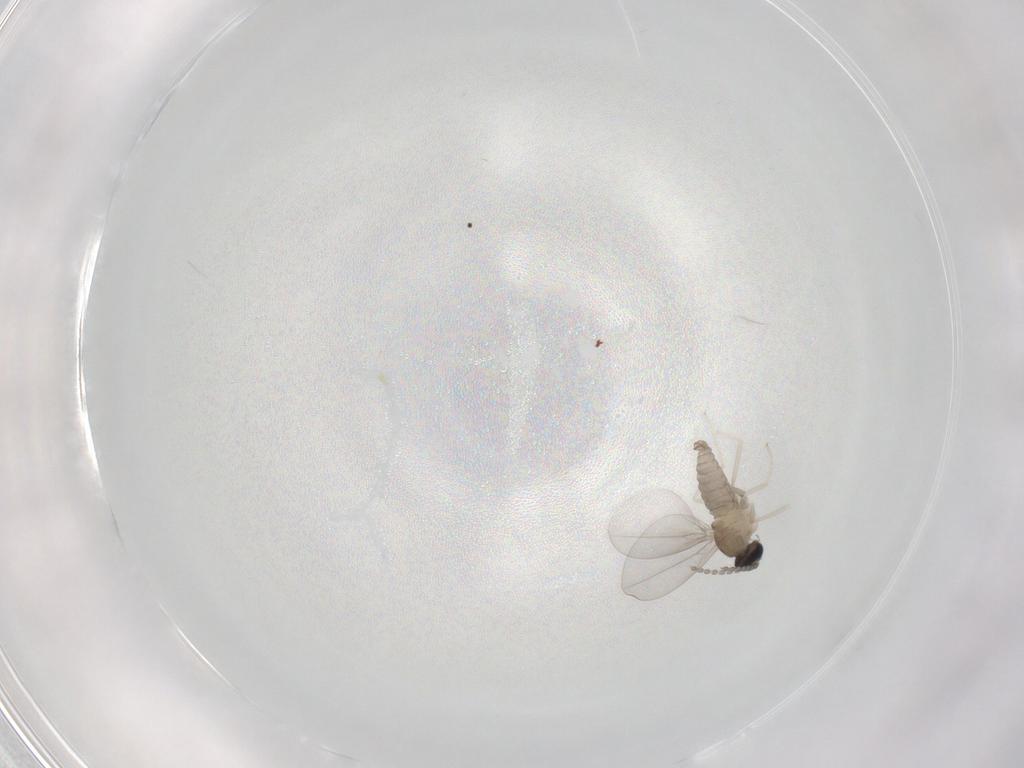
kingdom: Animalia
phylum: Arthropoda
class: Insecta
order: Diptera
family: Cecidomyiidae
